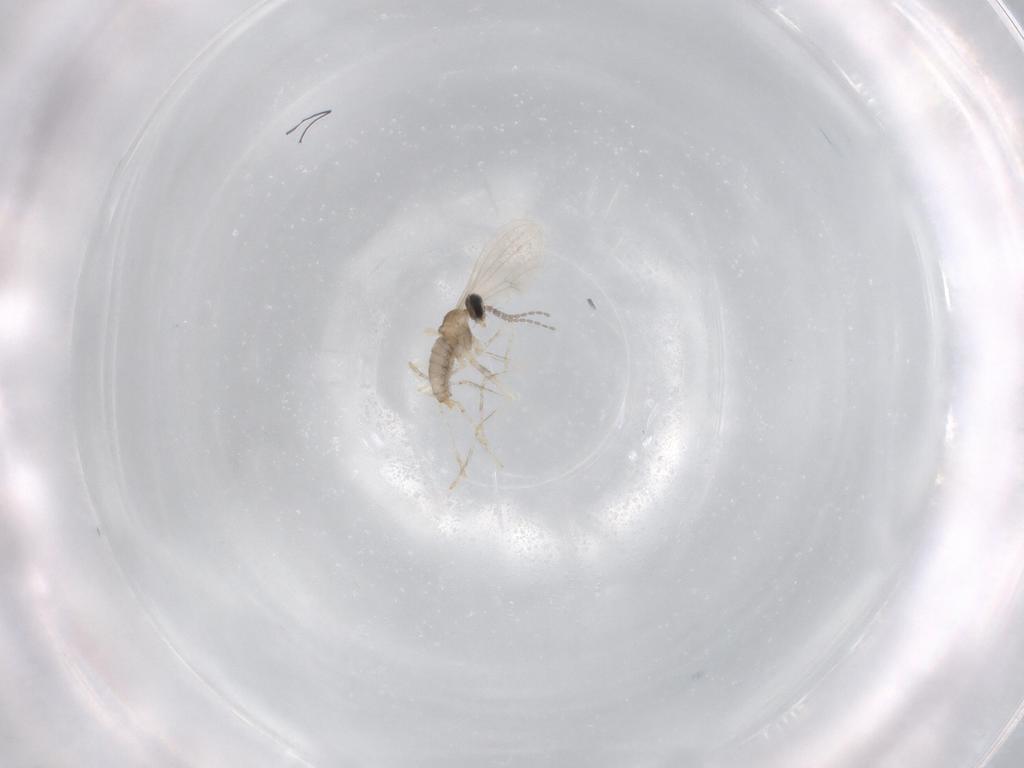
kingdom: Animalia
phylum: Arthropoda
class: Insecta
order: Diptera
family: Cecidomyiidae
